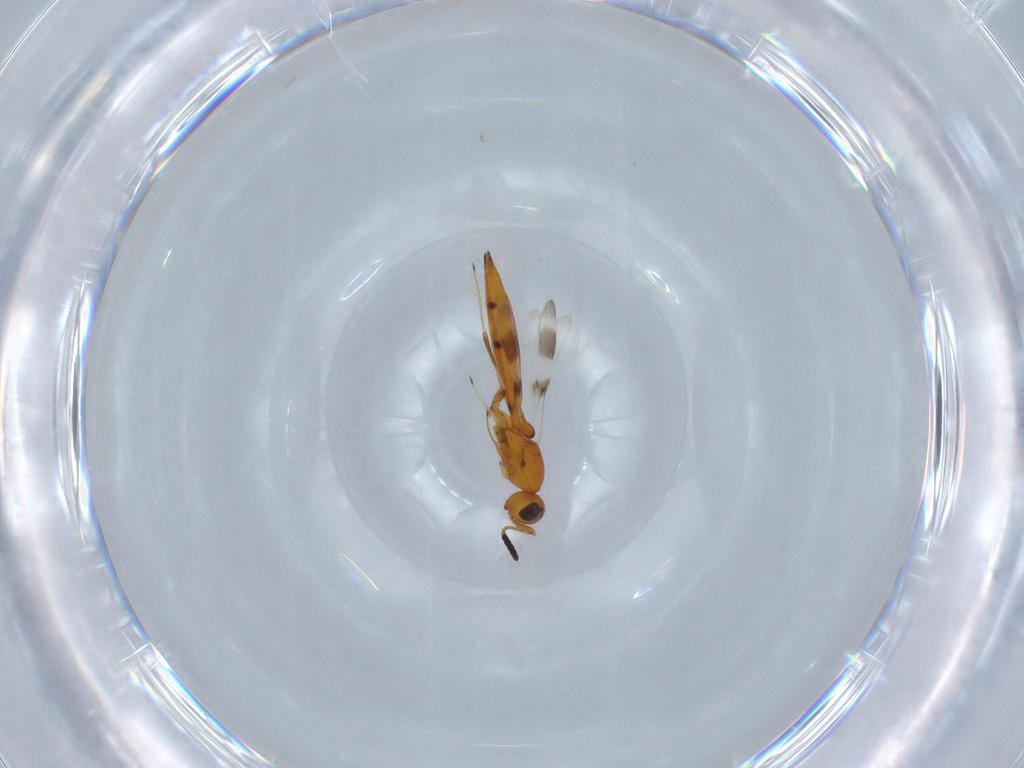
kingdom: Animalia
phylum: Arthropoda
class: Insecta
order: Hymenoptera
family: Scelionidae
